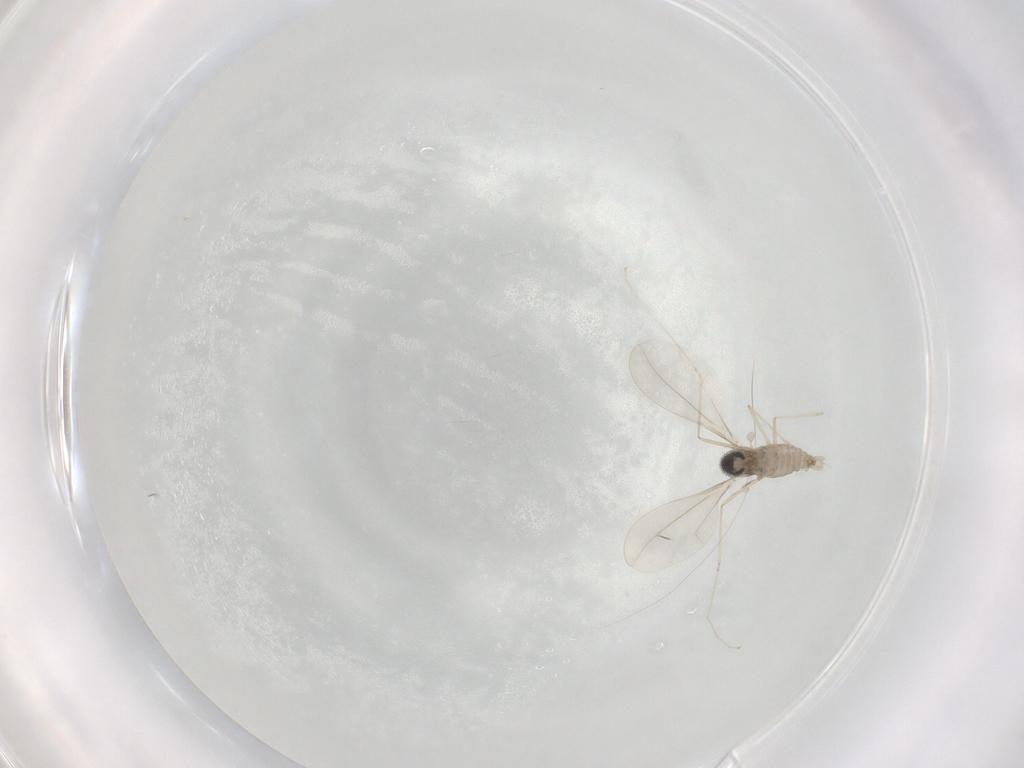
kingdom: Animalia
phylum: Arthropoda
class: Insecta
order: Diptera
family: Cecidomyiidae
